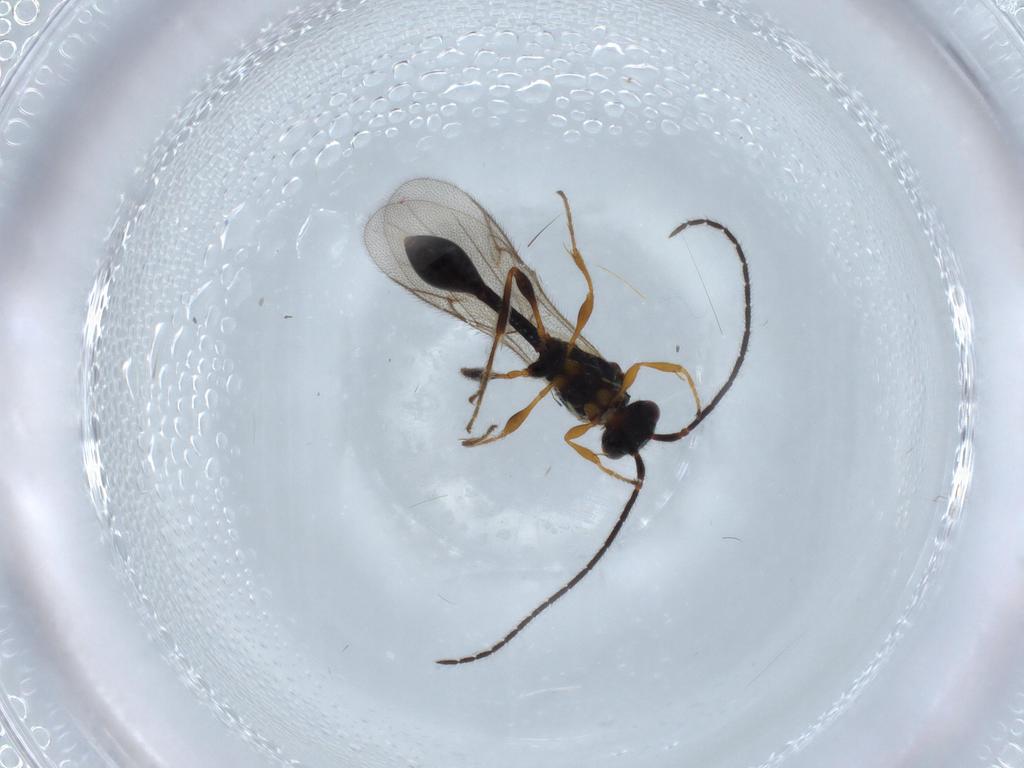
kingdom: Animalia
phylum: Arthropoda
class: Insecta
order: Hymenoptera
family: Diapriidae
